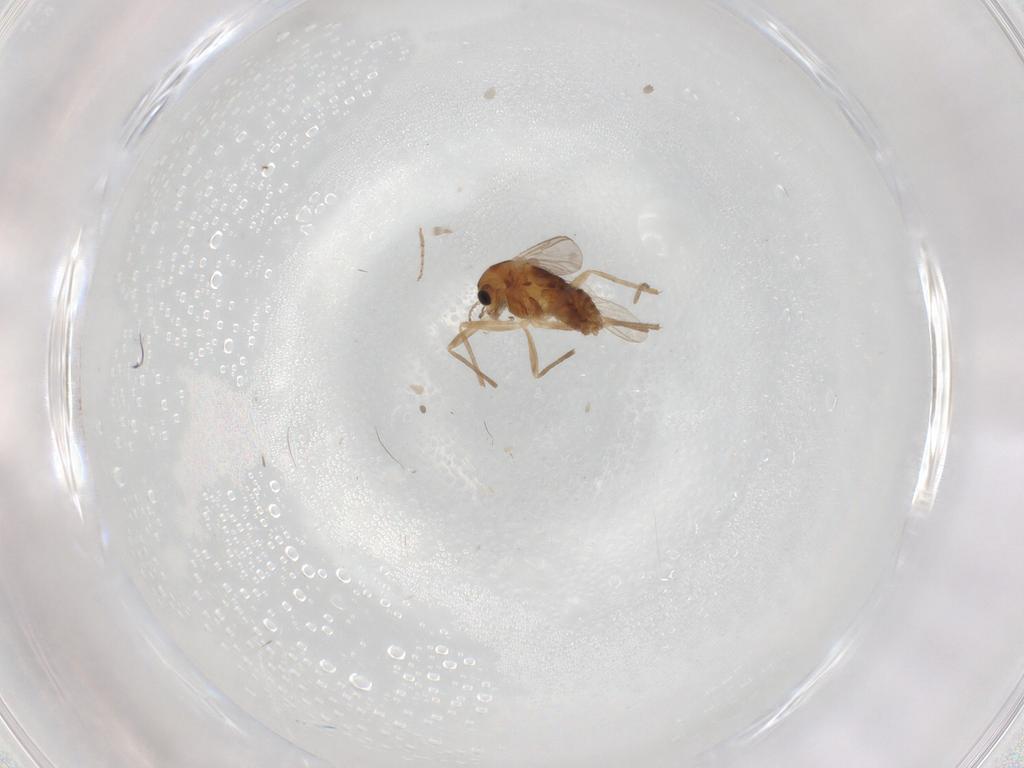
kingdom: Animalia
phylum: Arthropoda
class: Insecta
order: Diptera
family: Chironomidae
